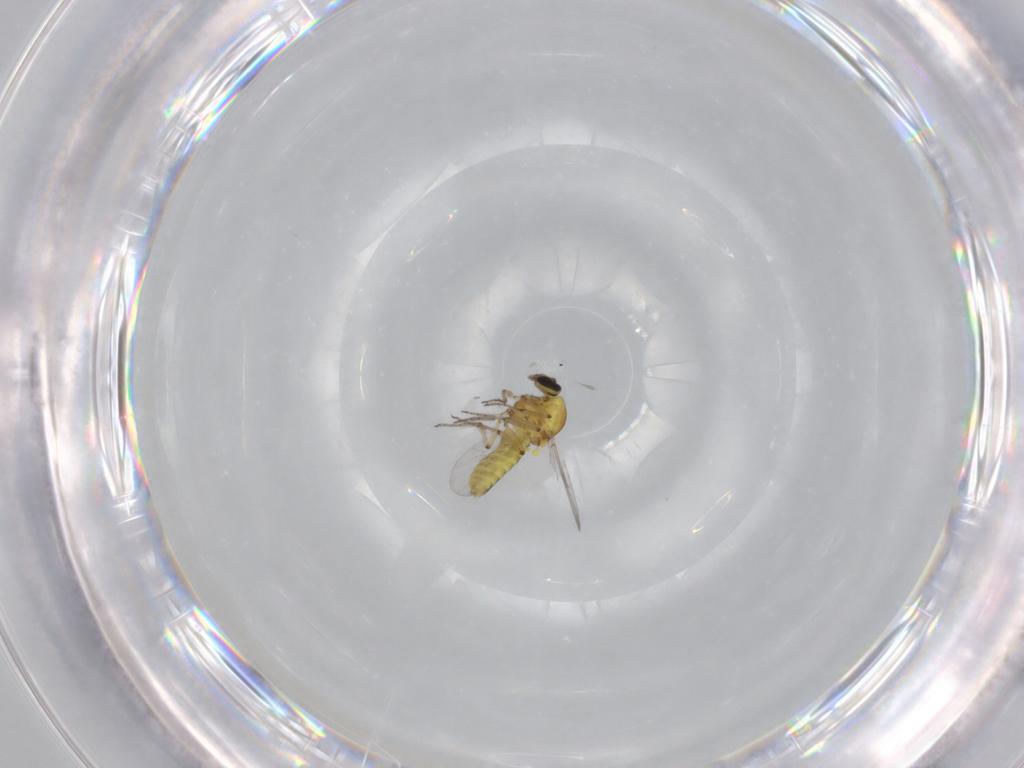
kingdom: Animalia
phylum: Arthropoda
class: Insecta
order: Diptera
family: Ceratopogonidae
